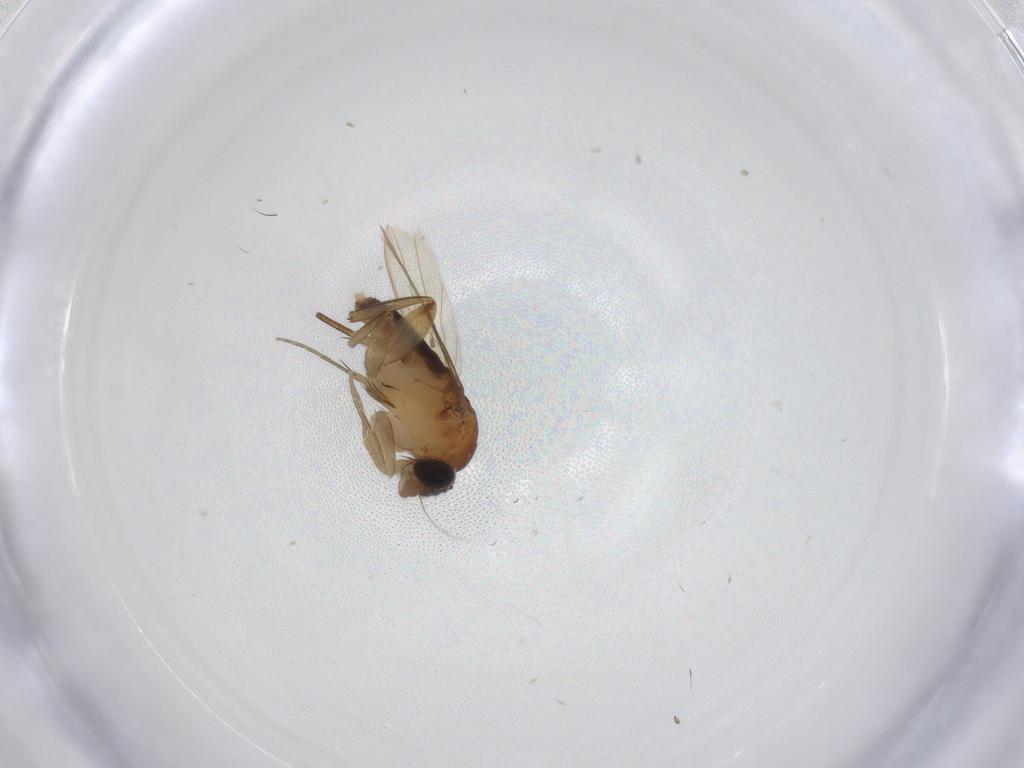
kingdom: Animalia
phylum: Arthropoda
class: Insecta
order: Diptera
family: Phoridae
